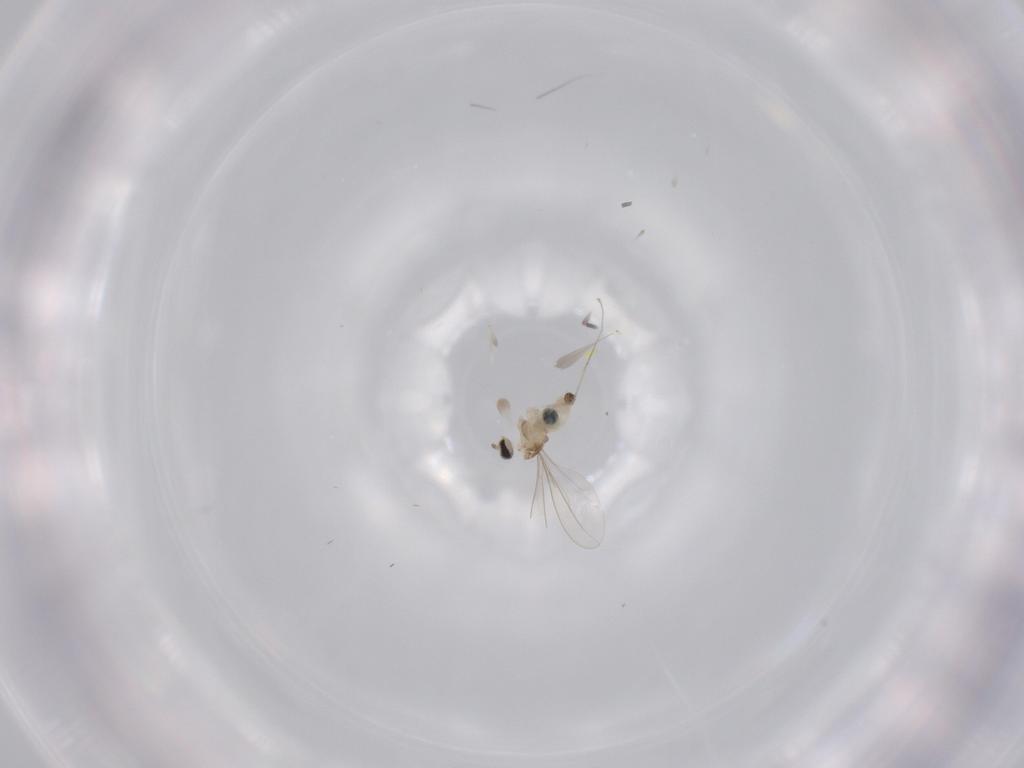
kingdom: Animalia
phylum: Arthropoda
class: Insecta
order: Diptera
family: Cecidomyiidae
